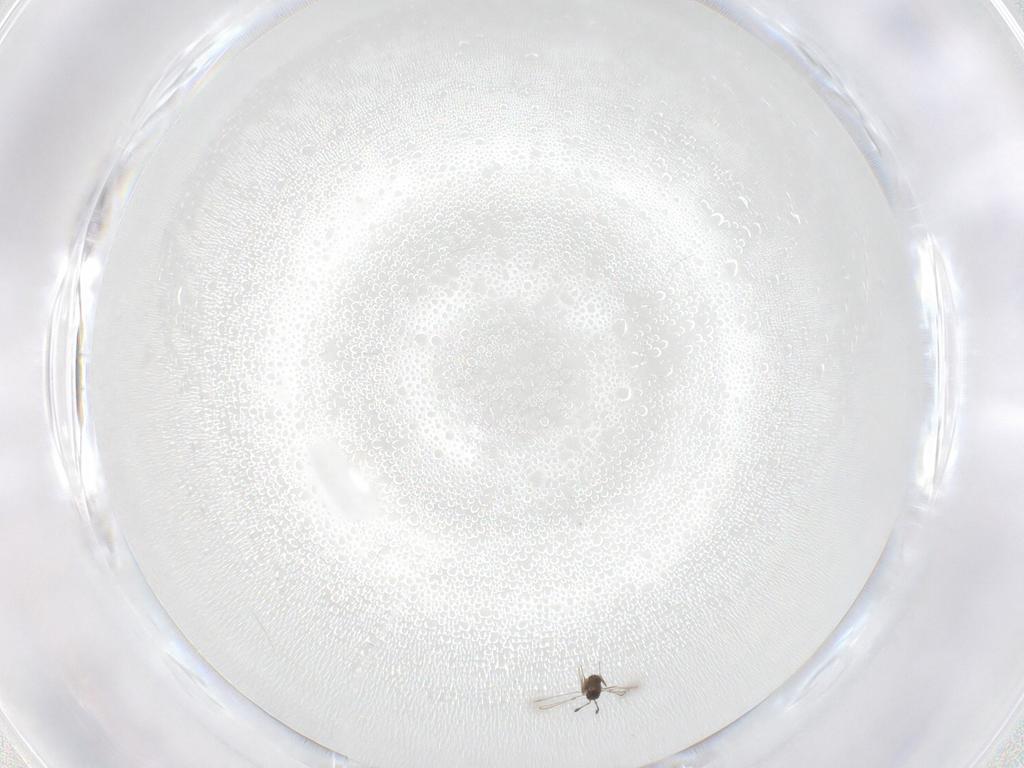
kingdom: Animalia
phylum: Arthropoda
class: Insecta
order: Hymenoptera
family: Mymaridae
